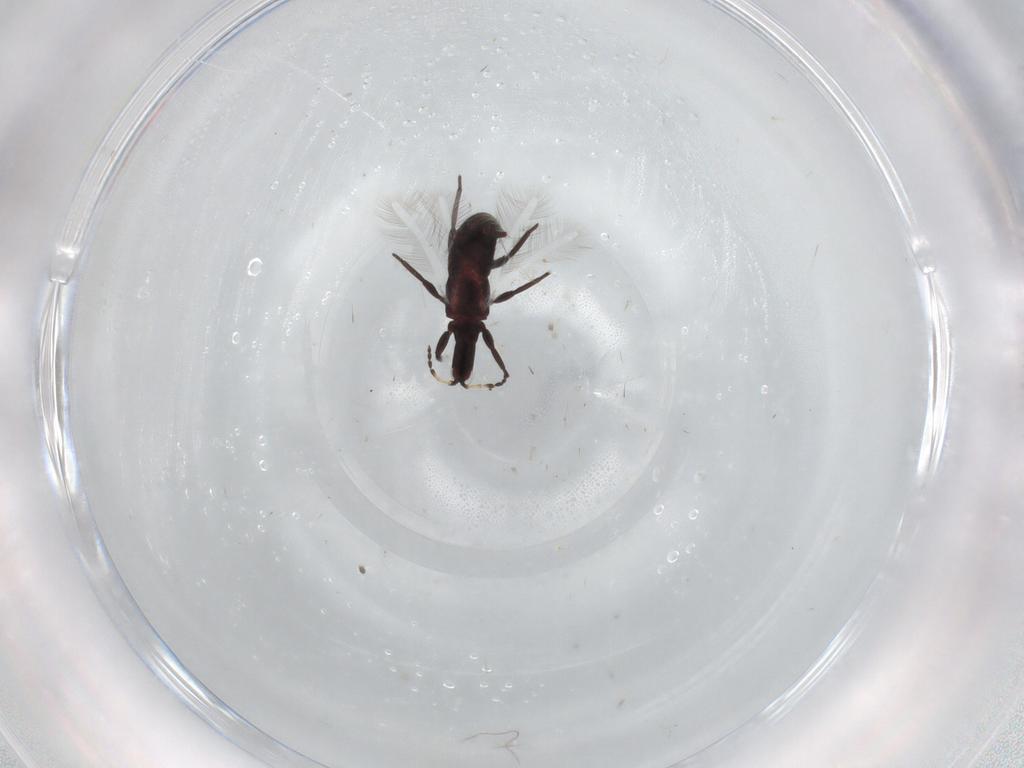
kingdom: Animalia
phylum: Arthropoda
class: Insecta
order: Thysanoptera
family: Phlaeothripidae
